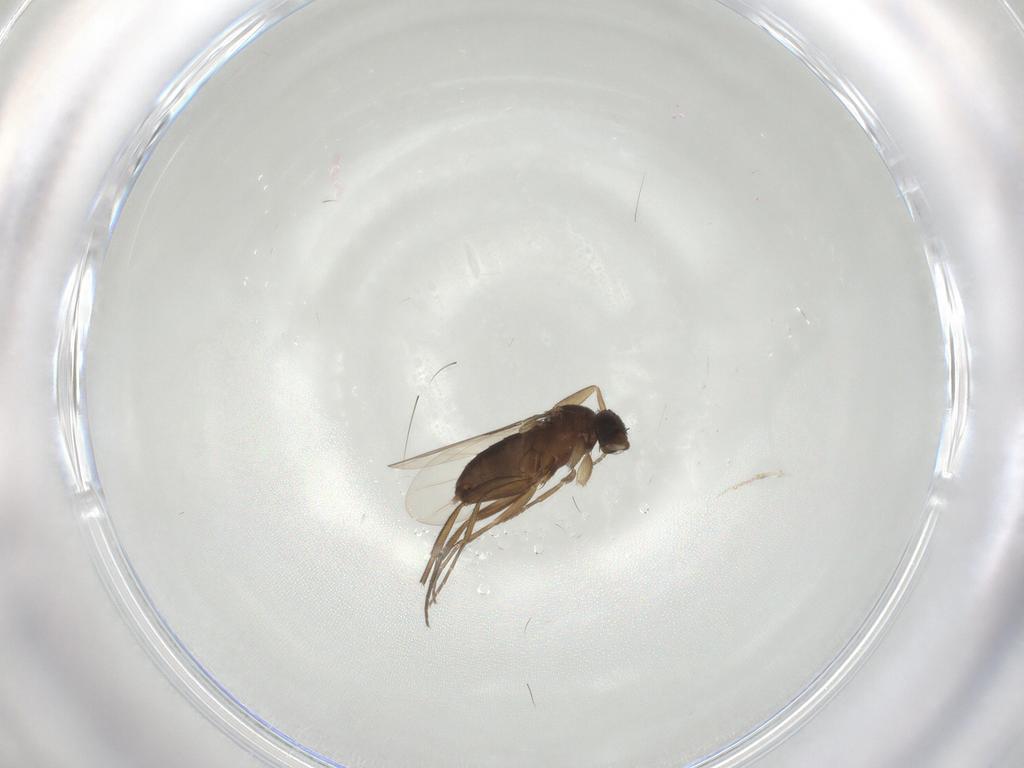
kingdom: Animalia
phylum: Arthropoda
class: Insecta
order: Diptera
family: Phoridae
